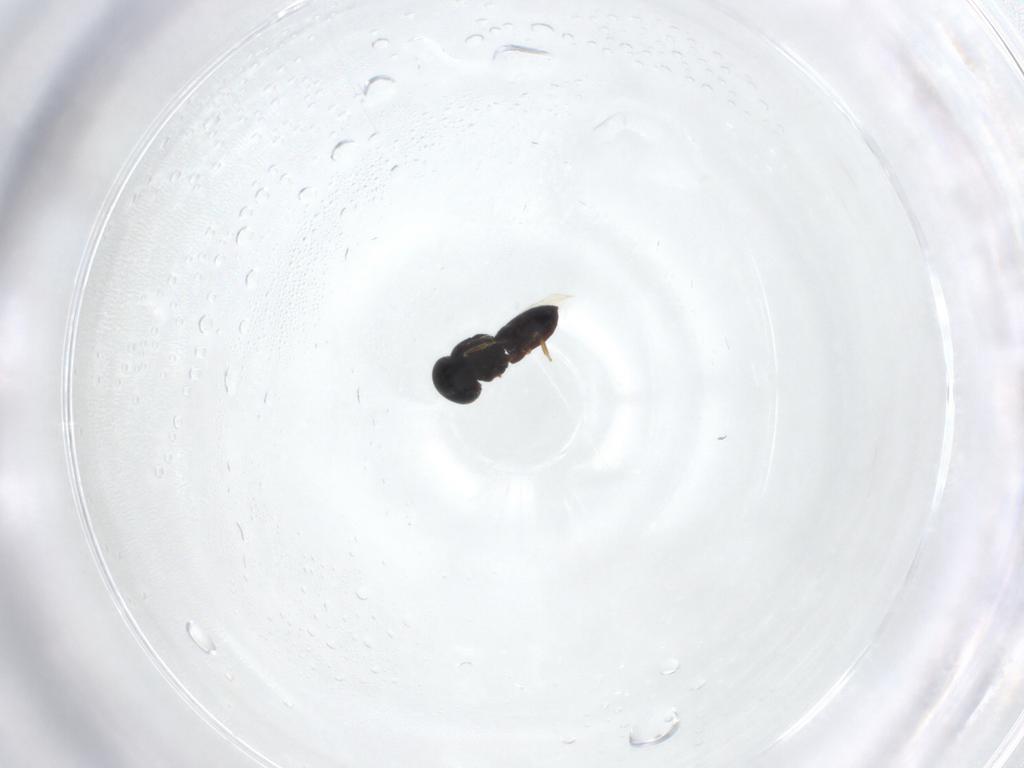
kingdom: Animalia
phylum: Arthropoda
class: Insecta
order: Hymenoptera
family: Scelionidae
